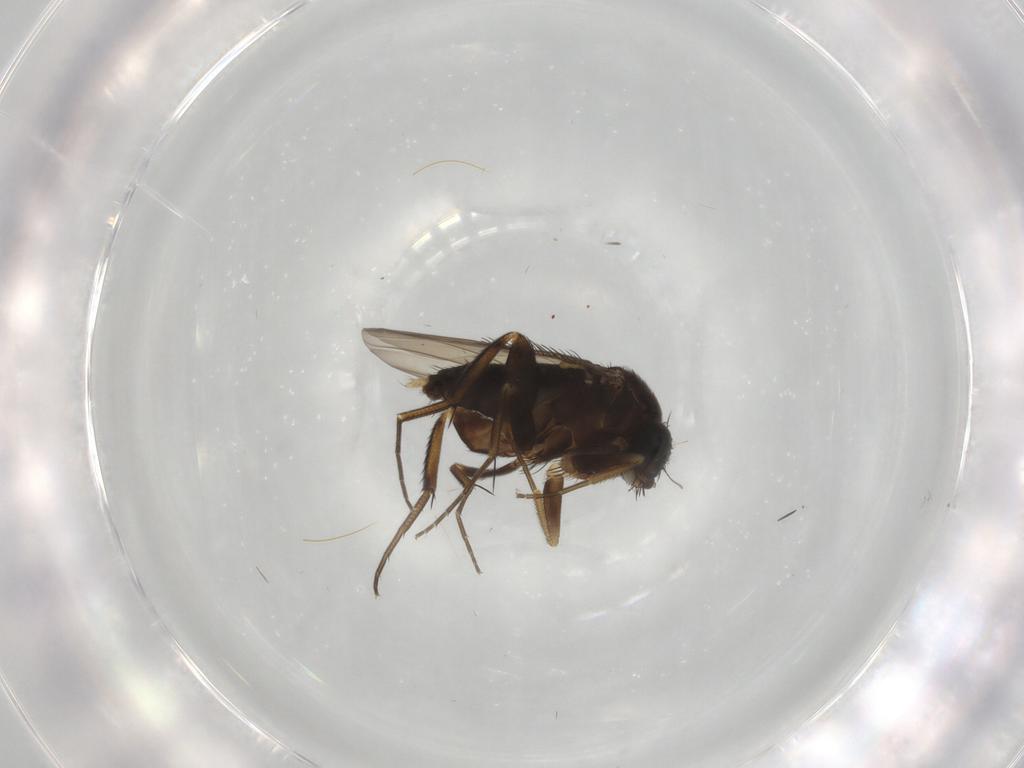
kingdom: Animalia
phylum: Arthropoda
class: Insecta
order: Diptera
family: Phoridae
